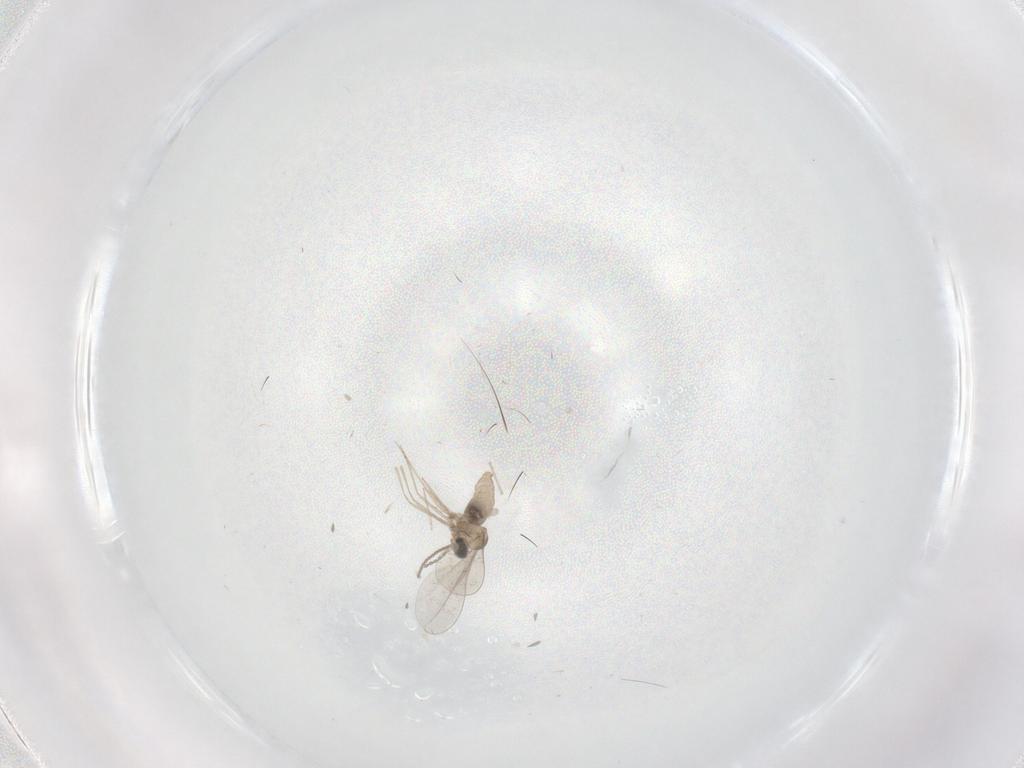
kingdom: Animalia
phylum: Arthropoda
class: Insecta
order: Diptera
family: Cecidomyiidae
